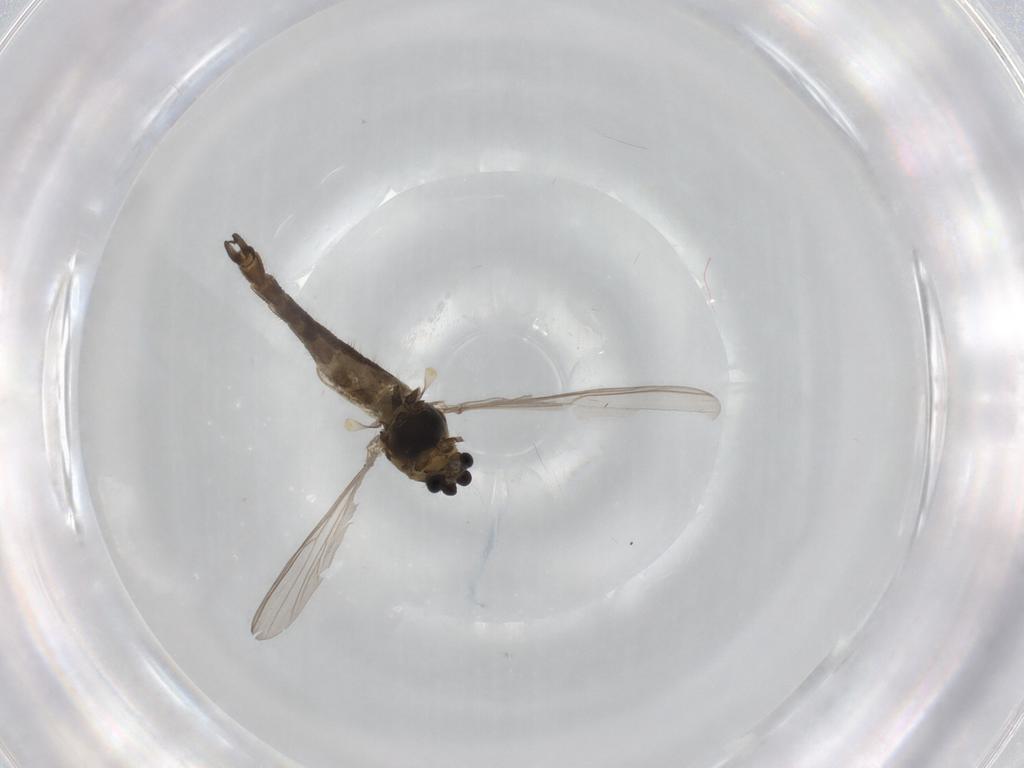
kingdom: Animalia
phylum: Arthropoda
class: Insecta
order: Diptera
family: Chironomidae
